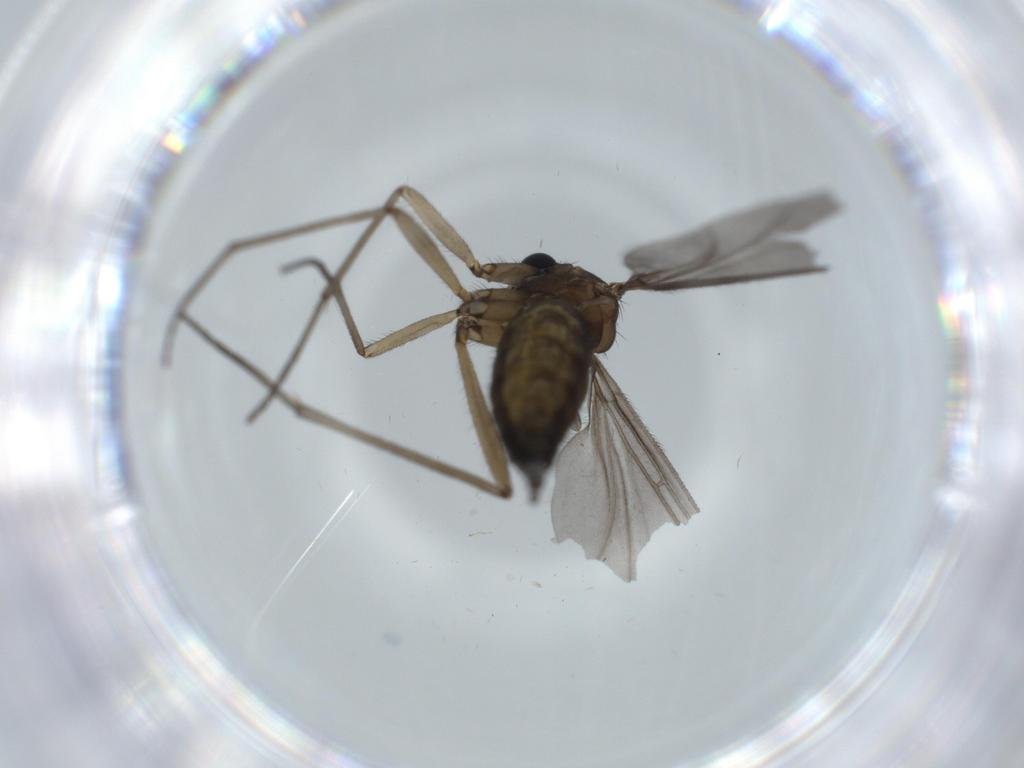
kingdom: Animalia
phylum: Arthropoda
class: Insecta
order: Diptera
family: Sciaridae
